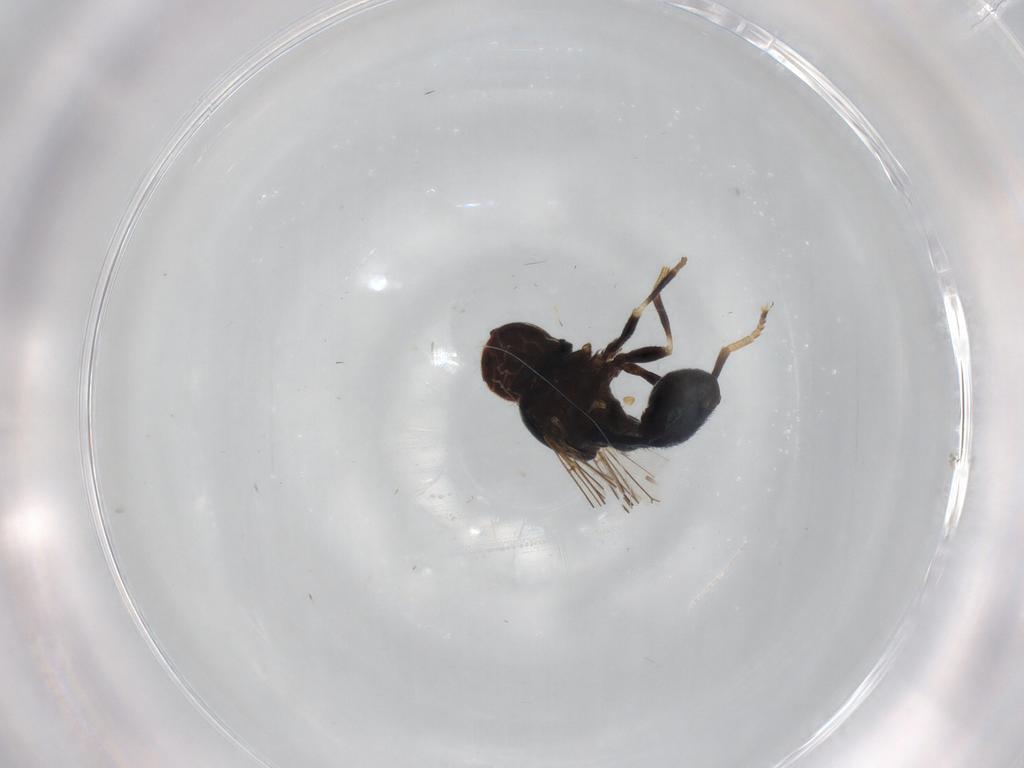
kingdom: Animalia
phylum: Arthropoda
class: Insecta
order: Diptera
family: Pipunculidae
